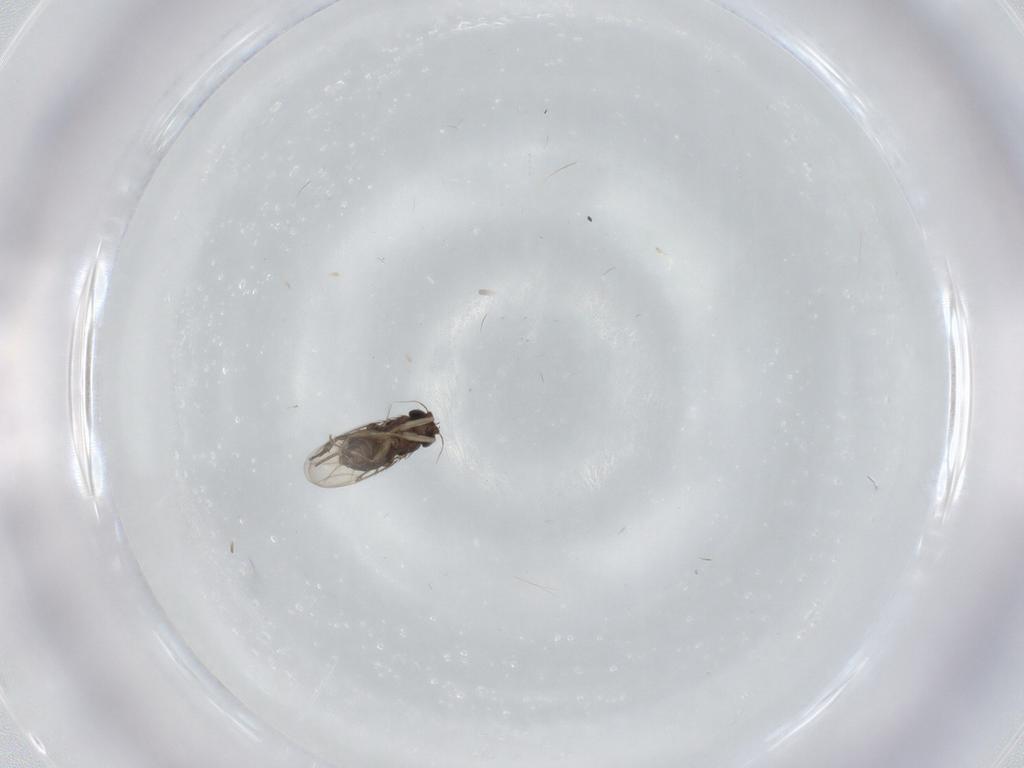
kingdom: Animalia
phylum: Arthropoda
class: Insecta
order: Diptera
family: Phoridae
